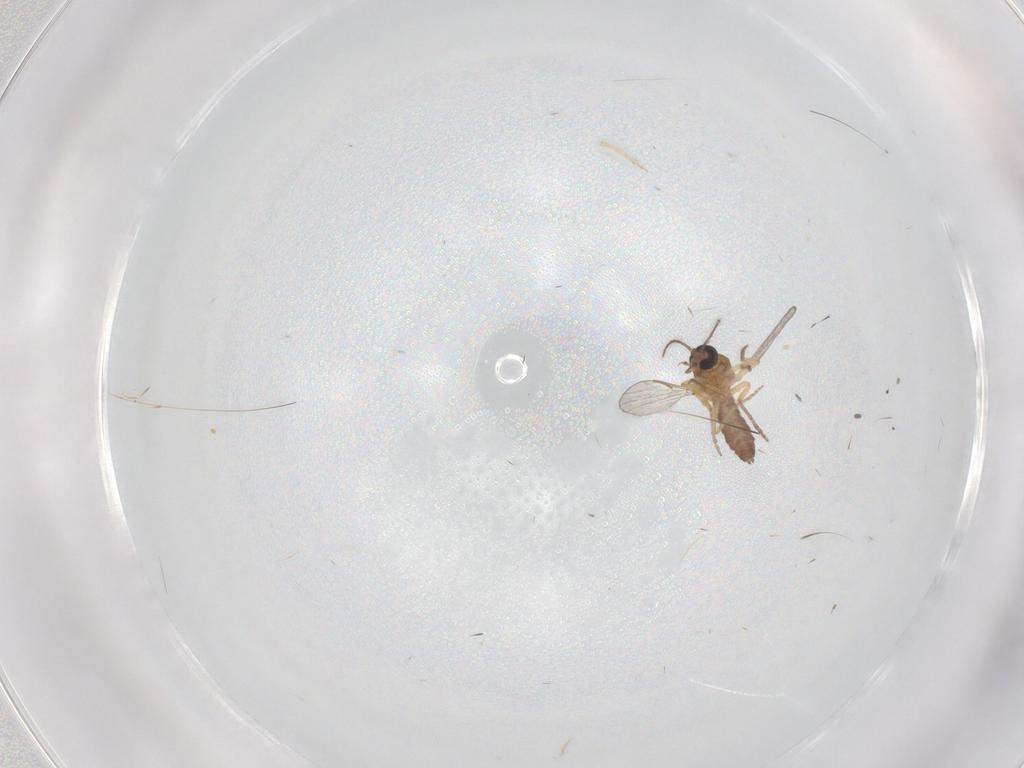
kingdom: Animalia
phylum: Arthropoda
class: Insecta
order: Diptera
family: Ceratopogonidae
